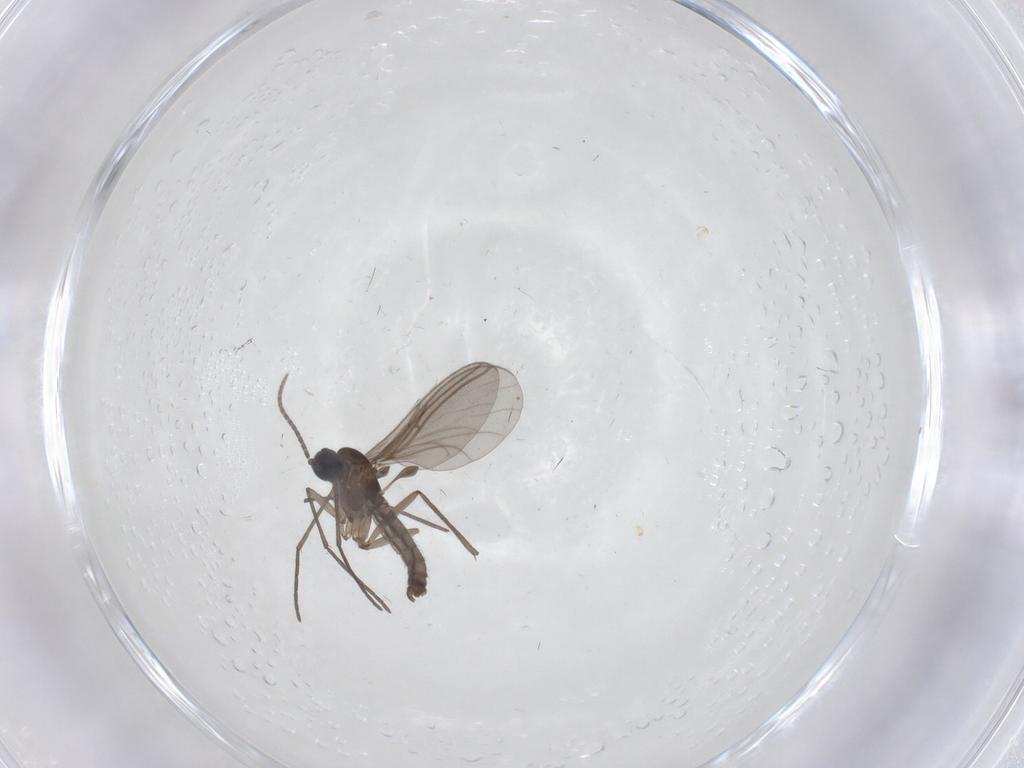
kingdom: Animalia
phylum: Arthropoda
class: Insecta
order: Diptera
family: Sciaridae
